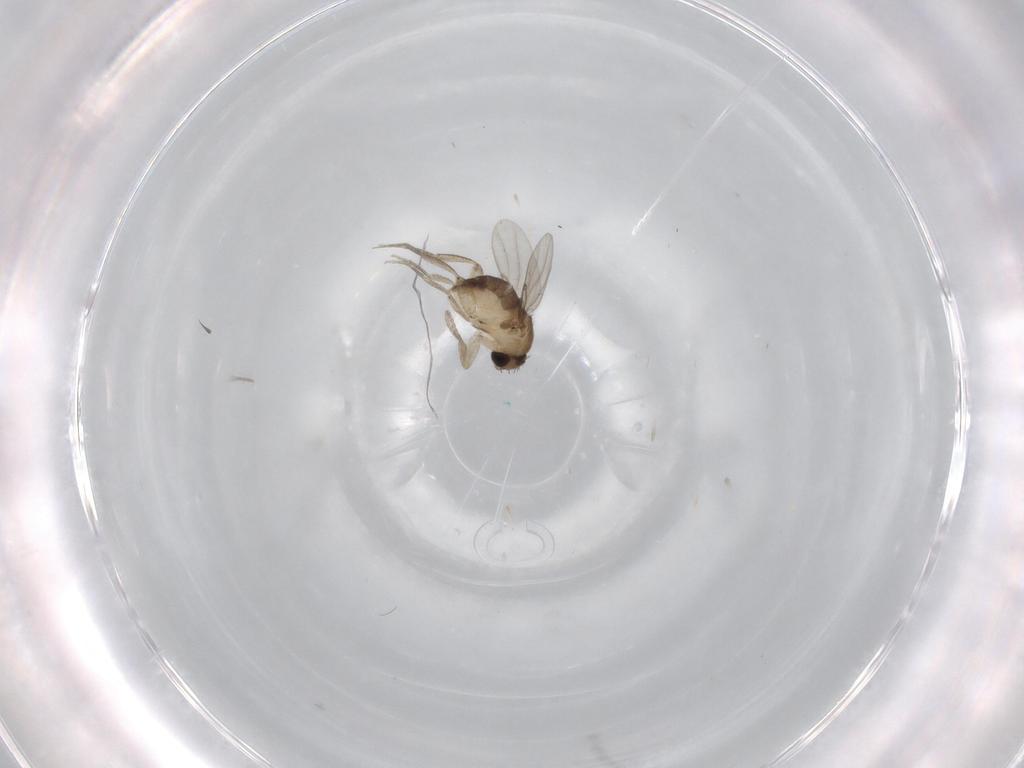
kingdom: Animalia
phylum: Arthropoda
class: Insecta
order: Diptera
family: Phoridae
